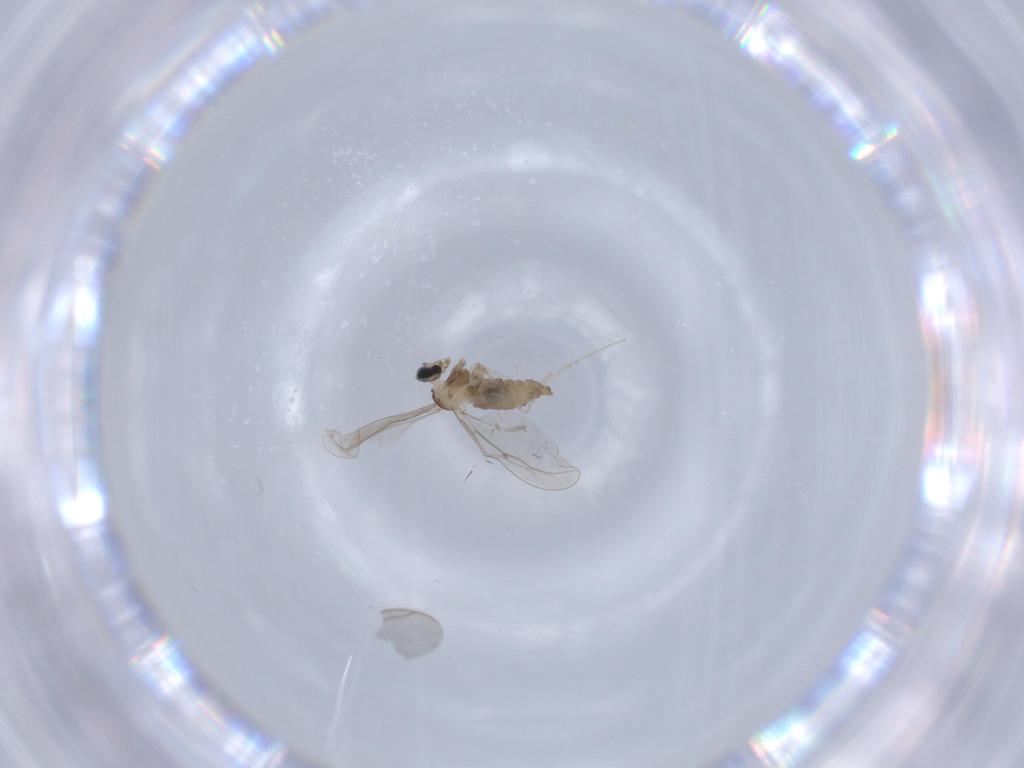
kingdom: Animalia
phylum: Arthropoda
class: Insecta
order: Diptera
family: Sciaridae
